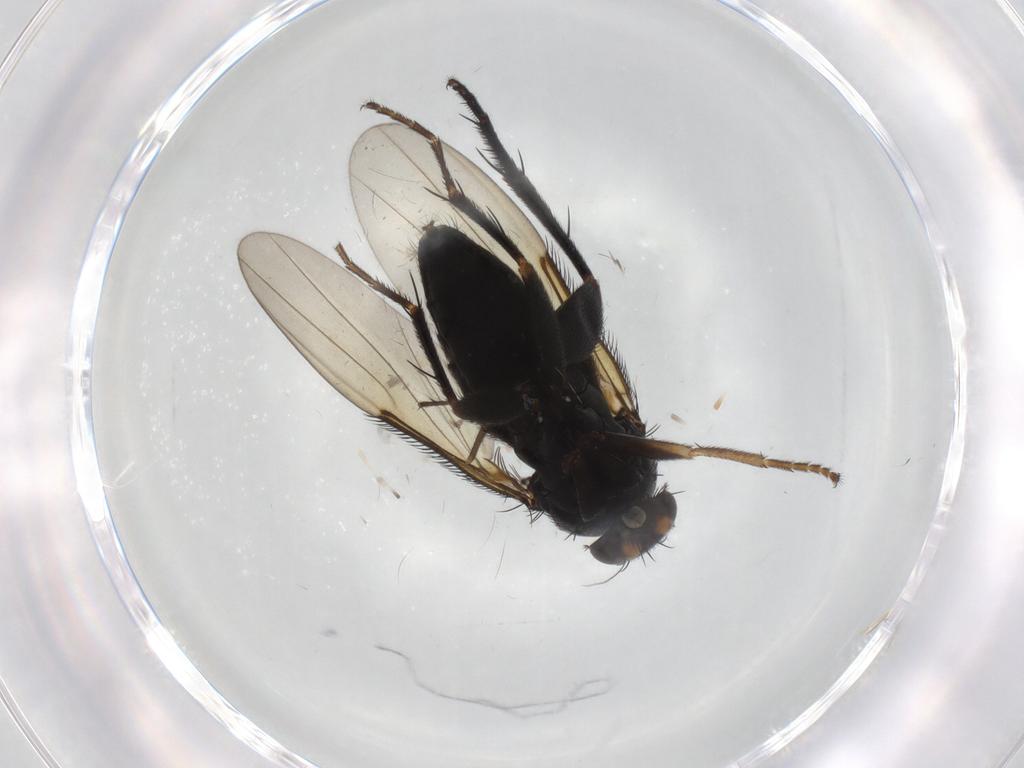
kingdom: Animalia
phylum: Arthropoda
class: Insecta
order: Diptera
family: Phoridae
